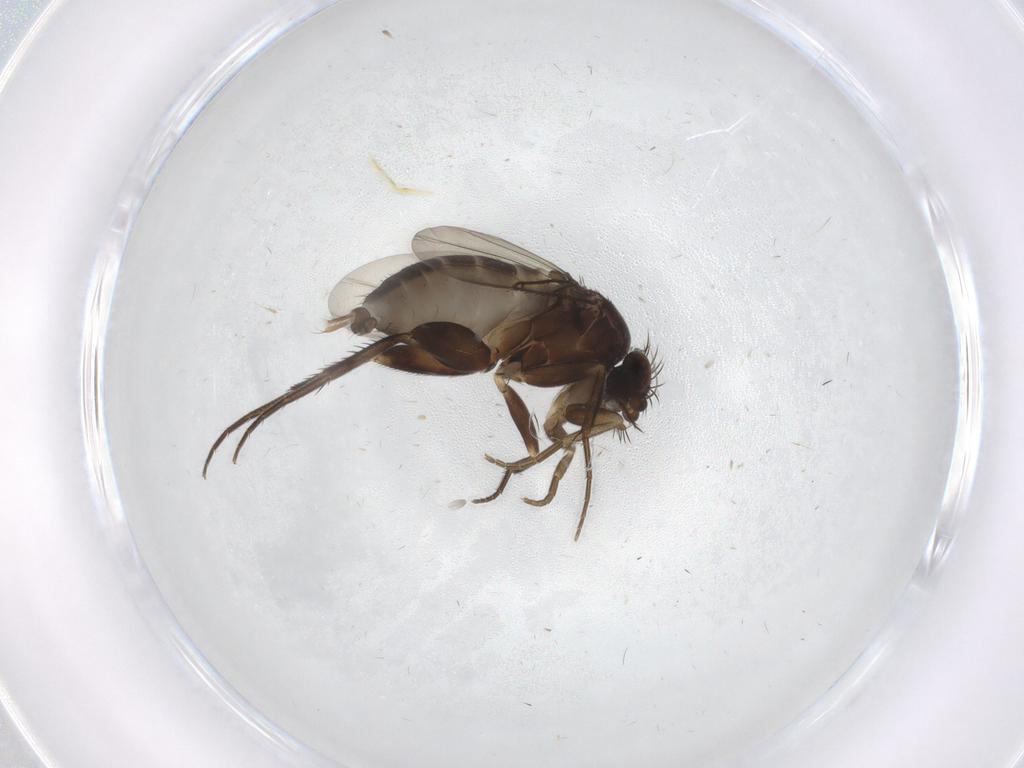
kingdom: Animalia
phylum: Arthropoda
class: Insecta
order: Diptera
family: Phoridae
